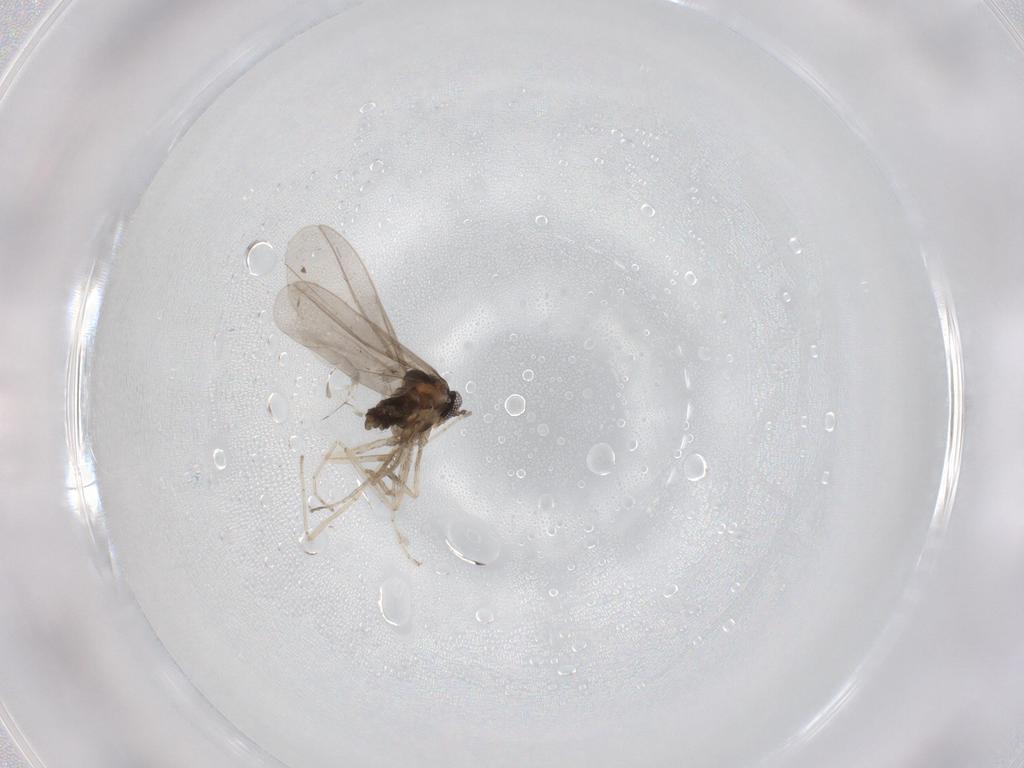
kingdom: Animalia
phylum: Arthropoda
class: Insecta
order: Diptera
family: Cecidomyiidae
